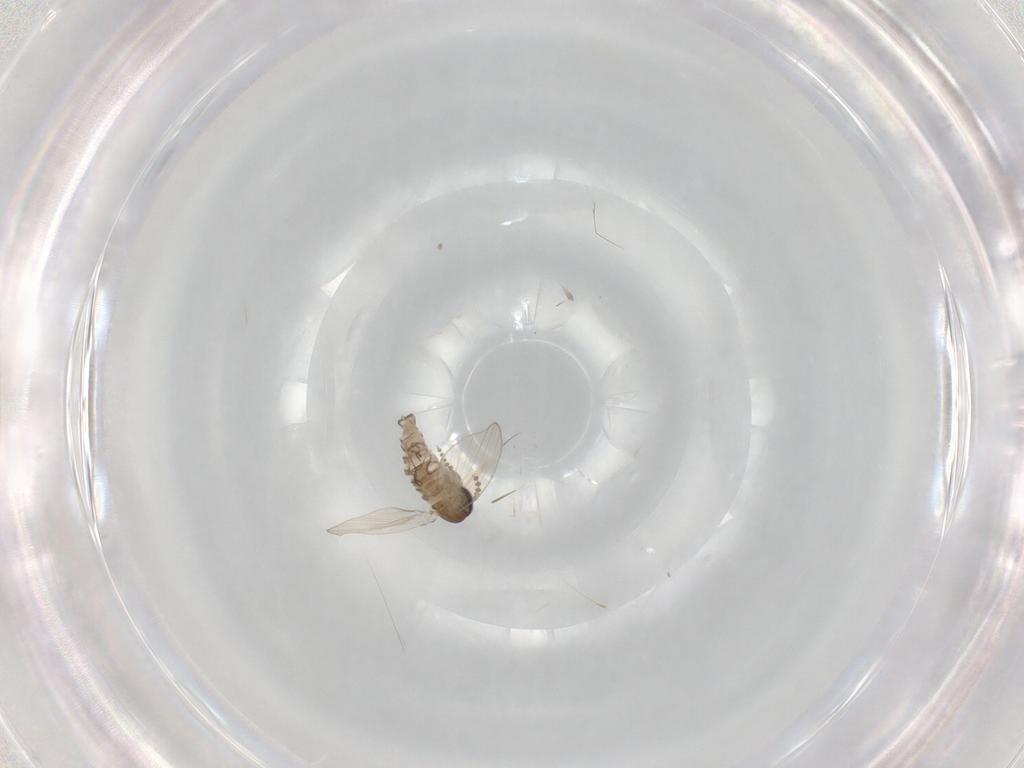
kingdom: Animalia
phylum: Arthropoda
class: Insecta
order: Diptera
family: Psychodidae
